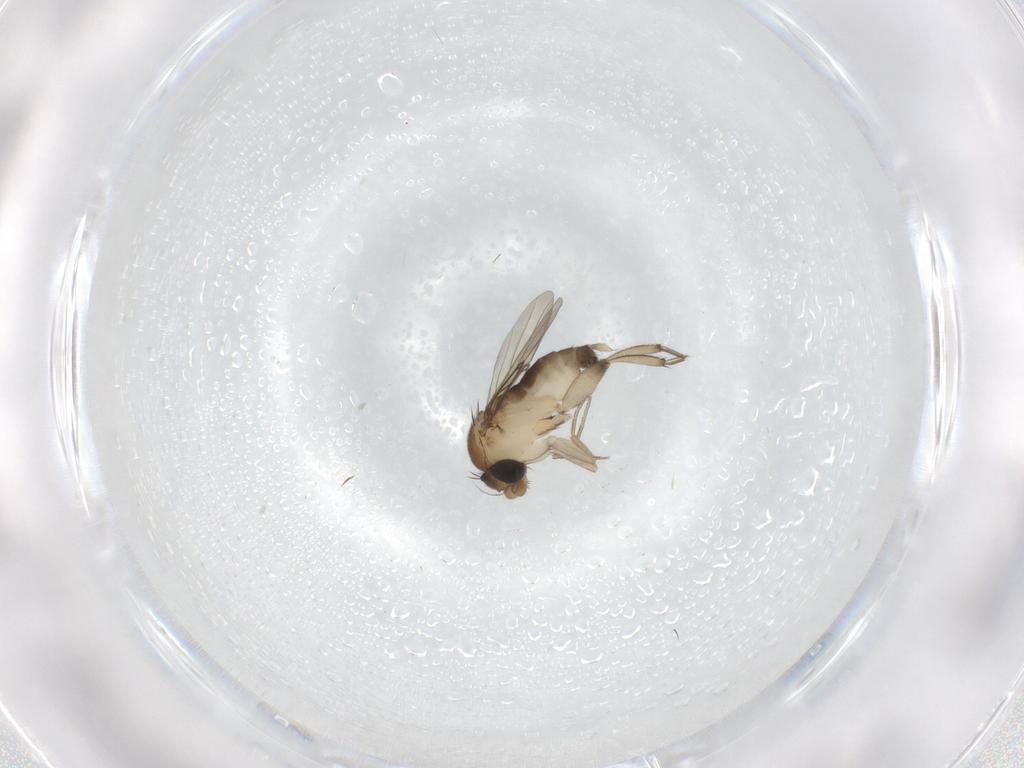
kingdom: Animalia
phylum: Arthropoda
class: Insecta
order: Diptera
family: Phoridae
